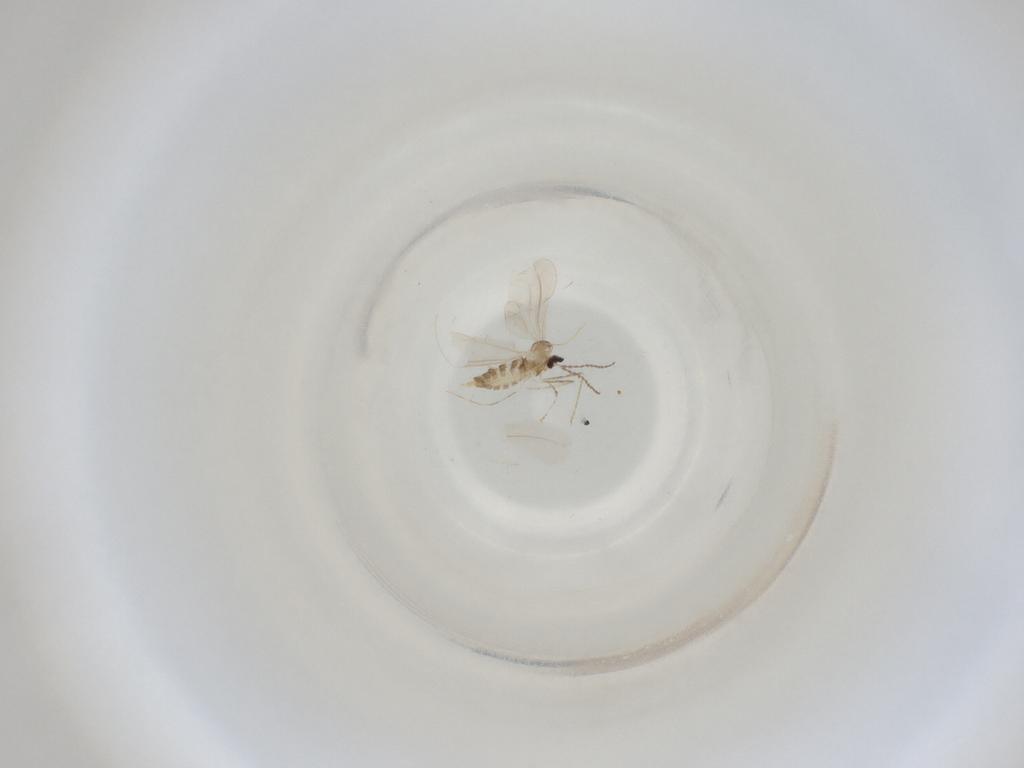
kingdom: Animalia
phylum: Arthropoda
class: Insecta
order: Diptera
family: Cecidomyiidae
